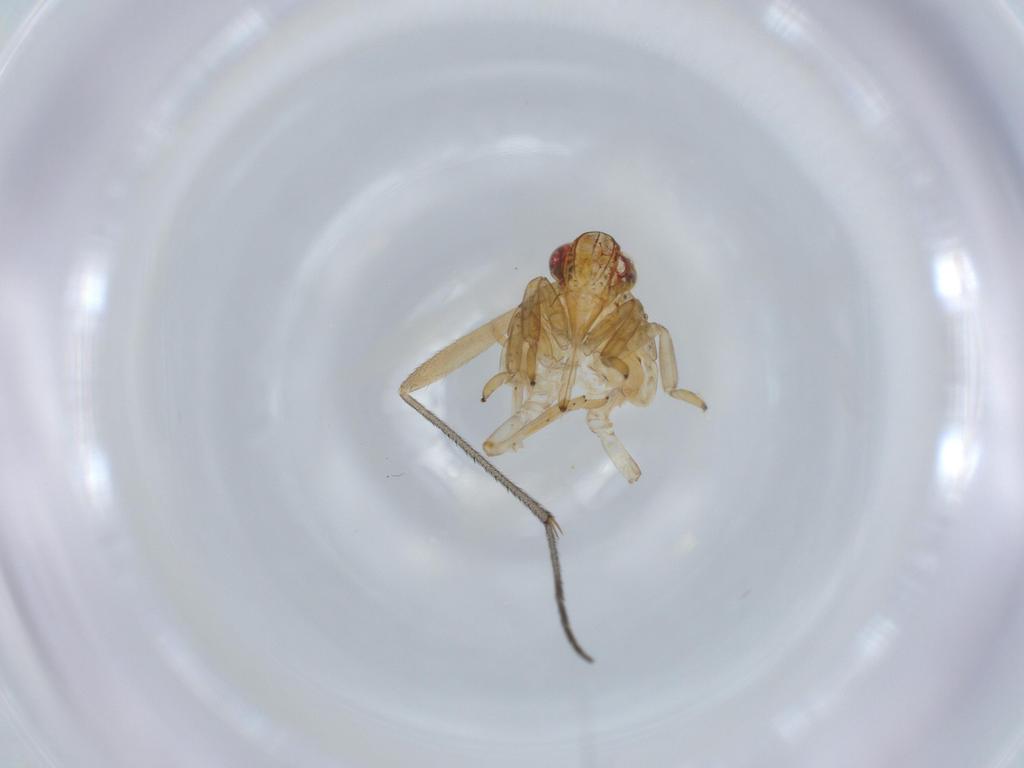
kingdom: Animalia
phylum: Arthropoda
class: Insecta
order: Hemiptera
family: Issidae
